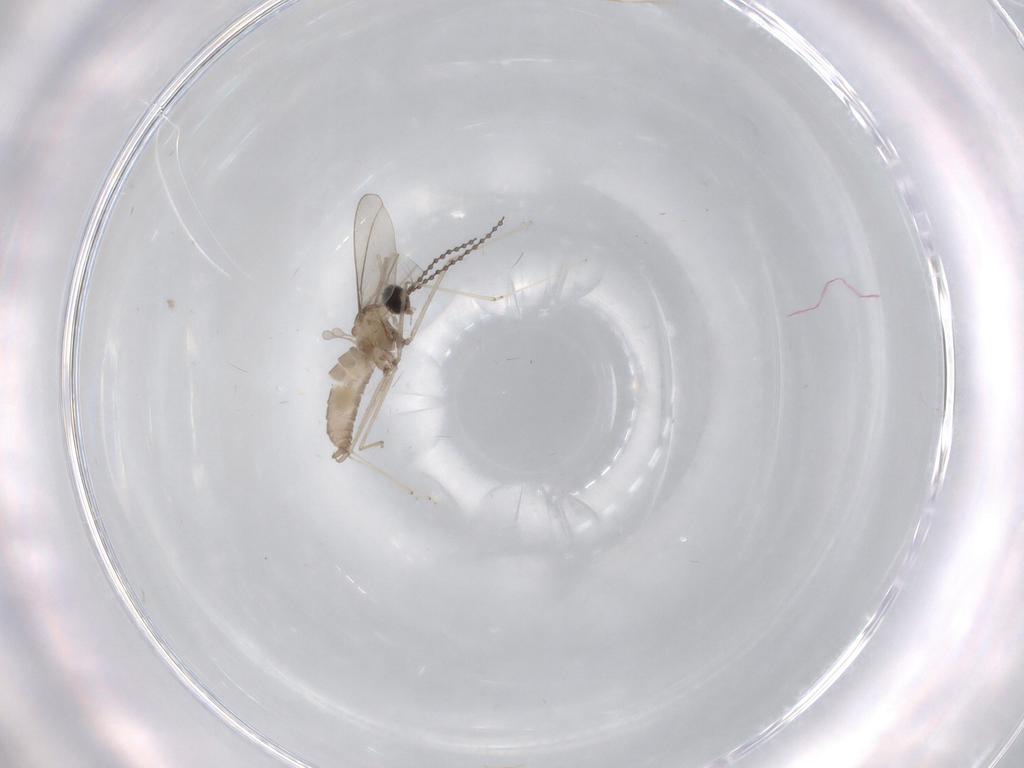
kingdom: Animalia
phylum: Arthropoda
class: Insecta
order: Diptera
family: Cecidomyiidae
